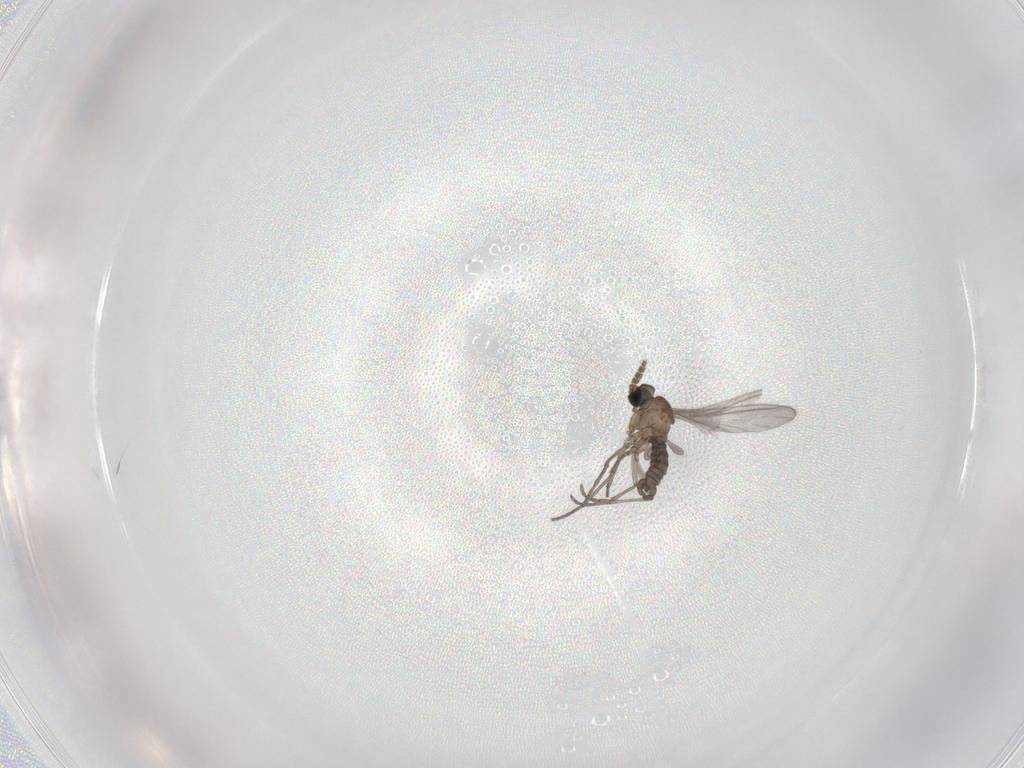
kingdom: Animalia
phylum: Arthropoda
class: Insecta
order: Diptera
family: Sciaridae
